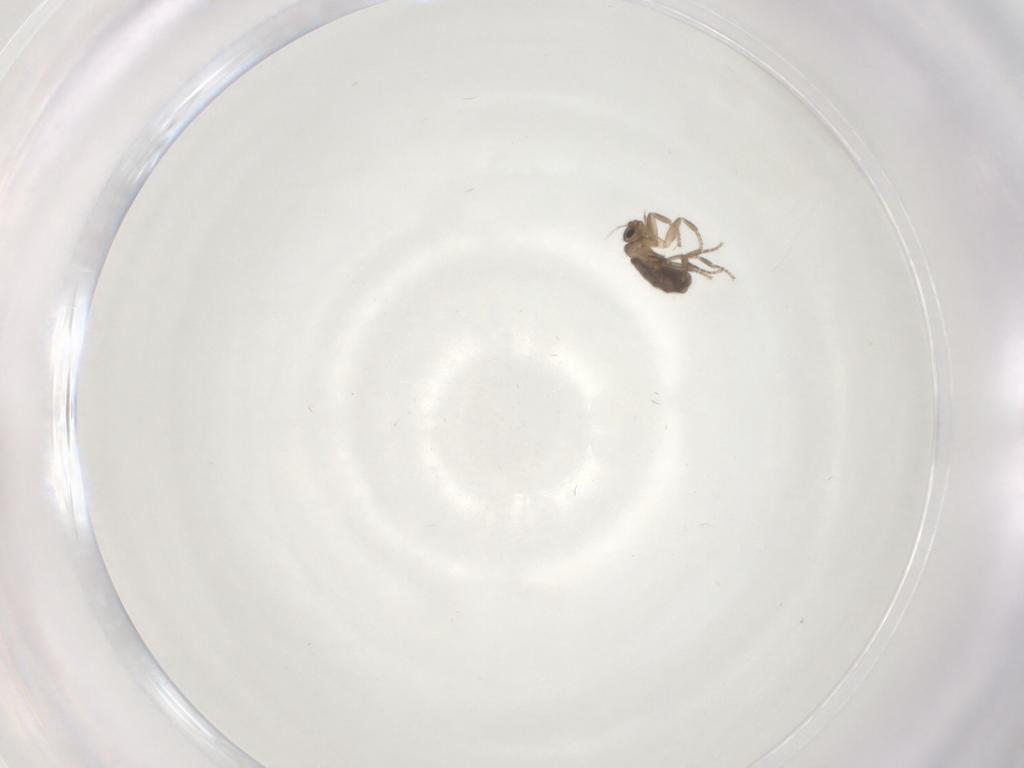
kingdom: Animalia
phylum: Arthropoda
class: Insecta
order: Diptera
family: Phoridae
